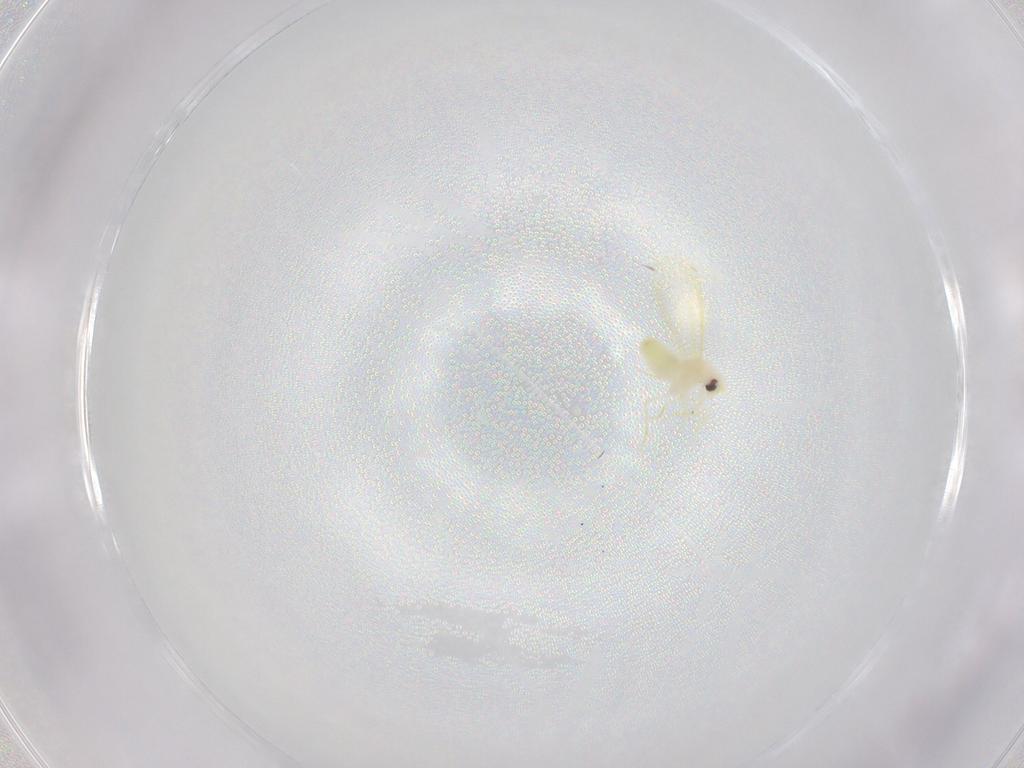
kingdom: Animalia
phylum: Arthropoda
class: Insecta
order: Hemiptera
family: Aleyrodidae
